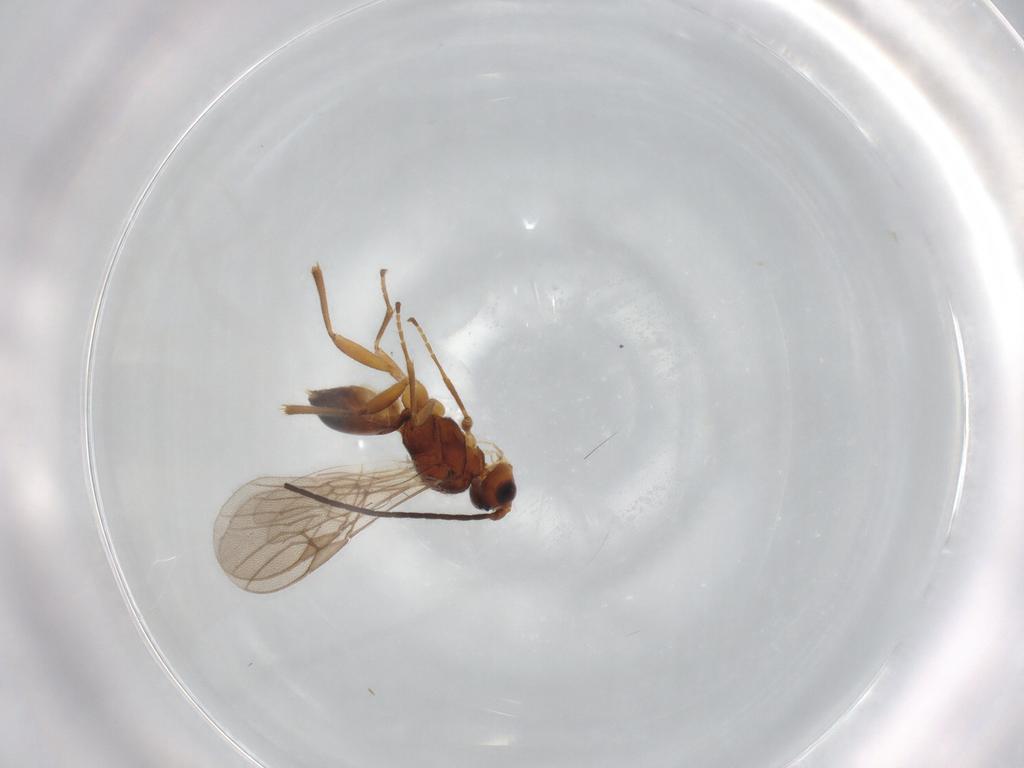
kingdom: Animalia
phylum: Arthropoda
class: Insecta
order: Hymenoptera
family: Braconidae
